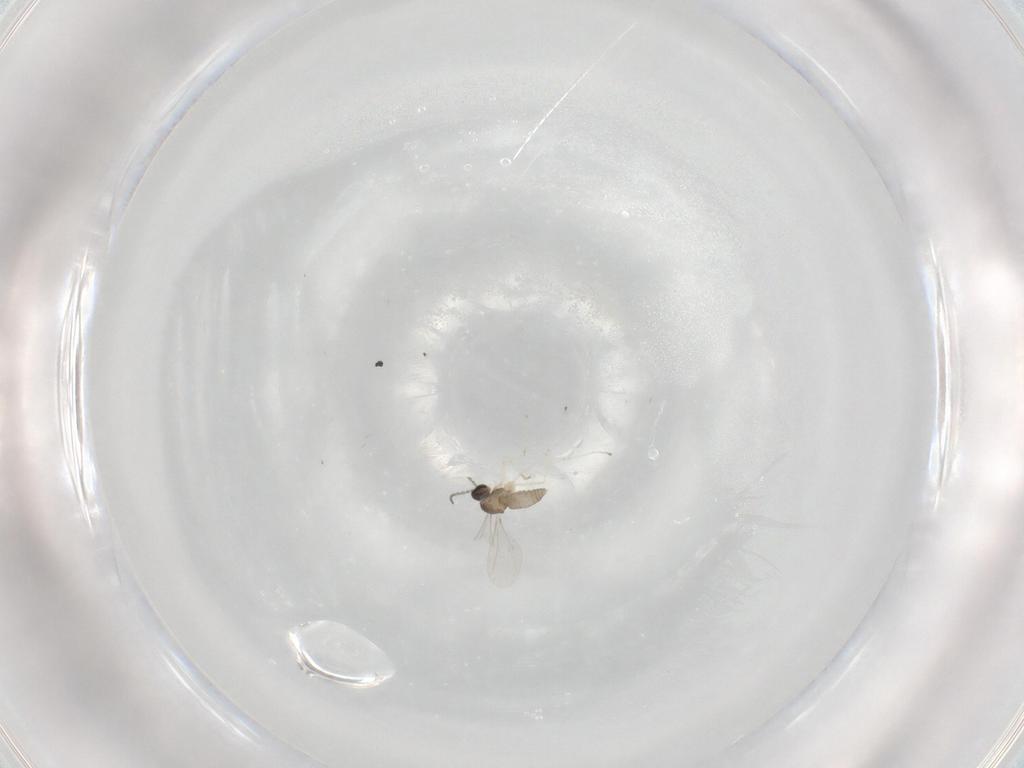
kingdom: Animalia
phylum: Arthropoda
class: Insecta
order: Diptera
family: Cecidomyiidae
